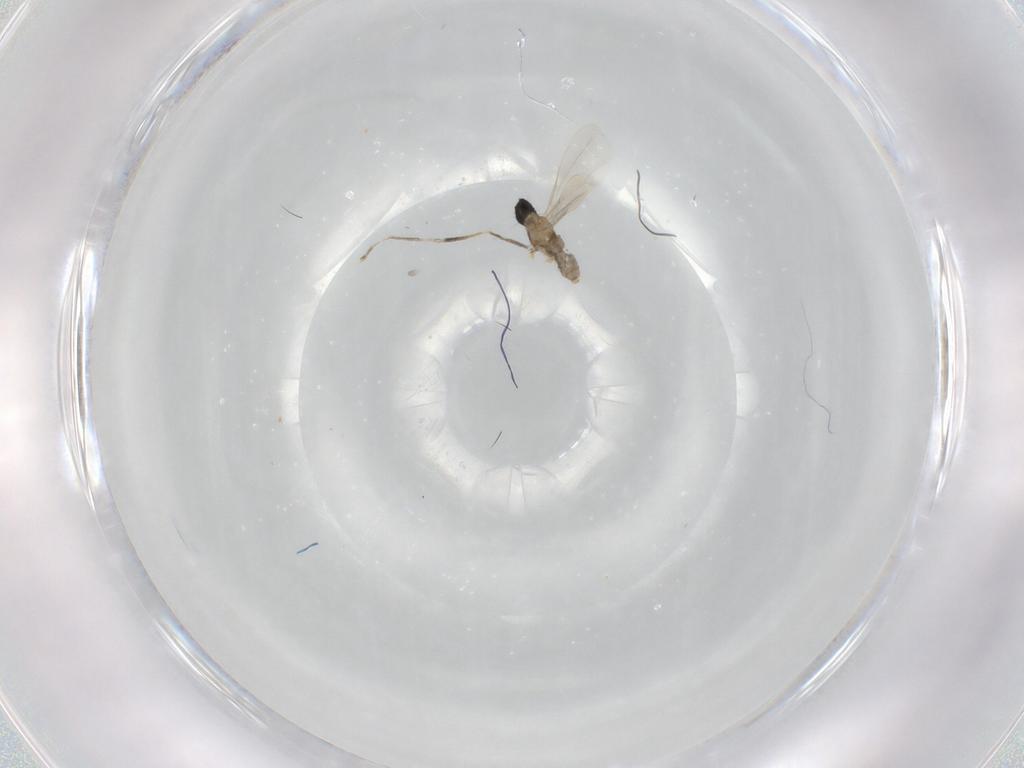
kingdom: Animalia
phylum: Arthropoda
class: Insecta
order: Diptera
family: Cecidomyiidae
